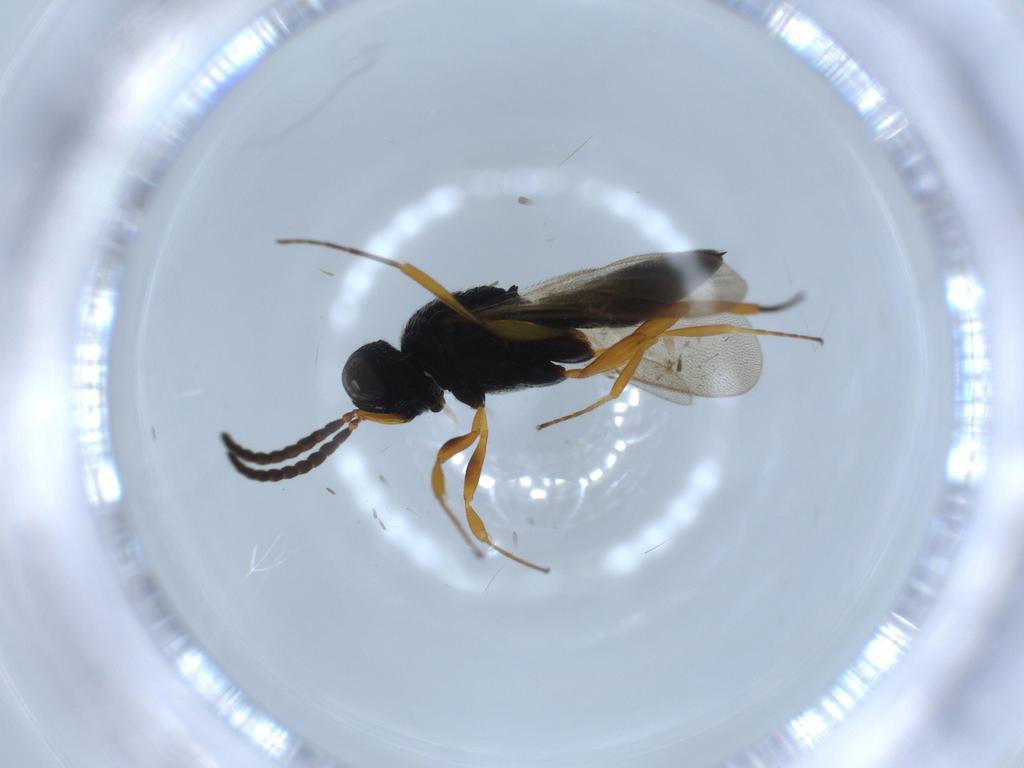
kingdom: Animalia
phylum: Arthropoda
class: Insecta
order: Hymenoptera
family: Scelionidae
